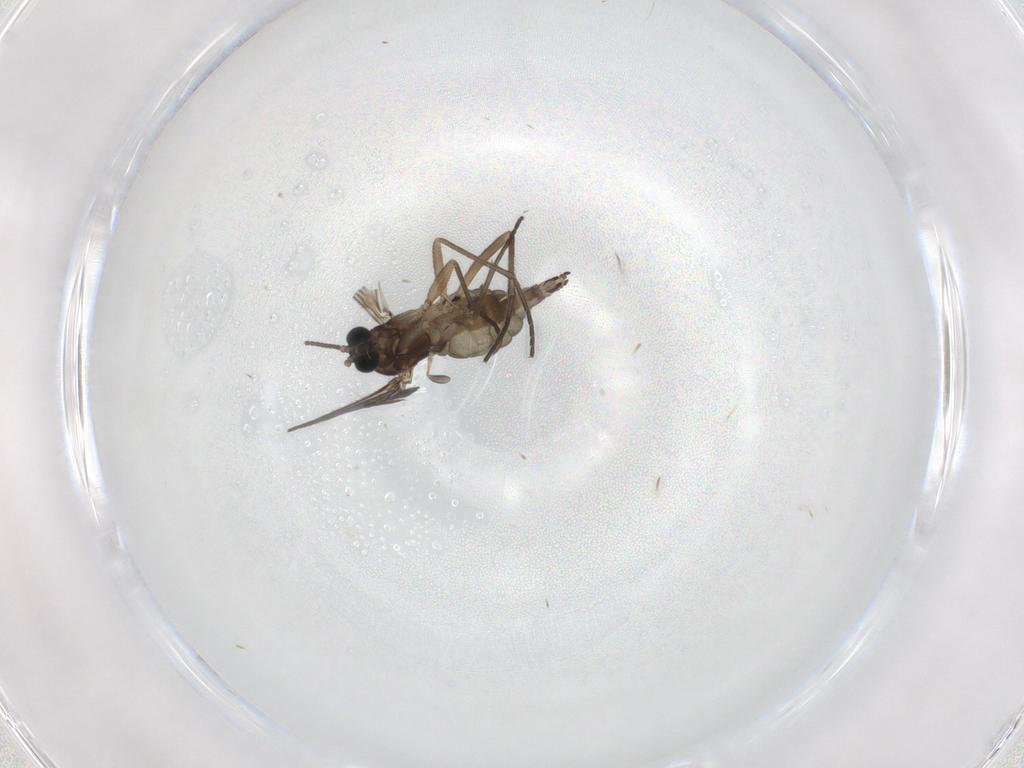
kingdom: Animalia
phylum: Arthropoda
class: Insecta
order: Diptera
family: Sciaridae
